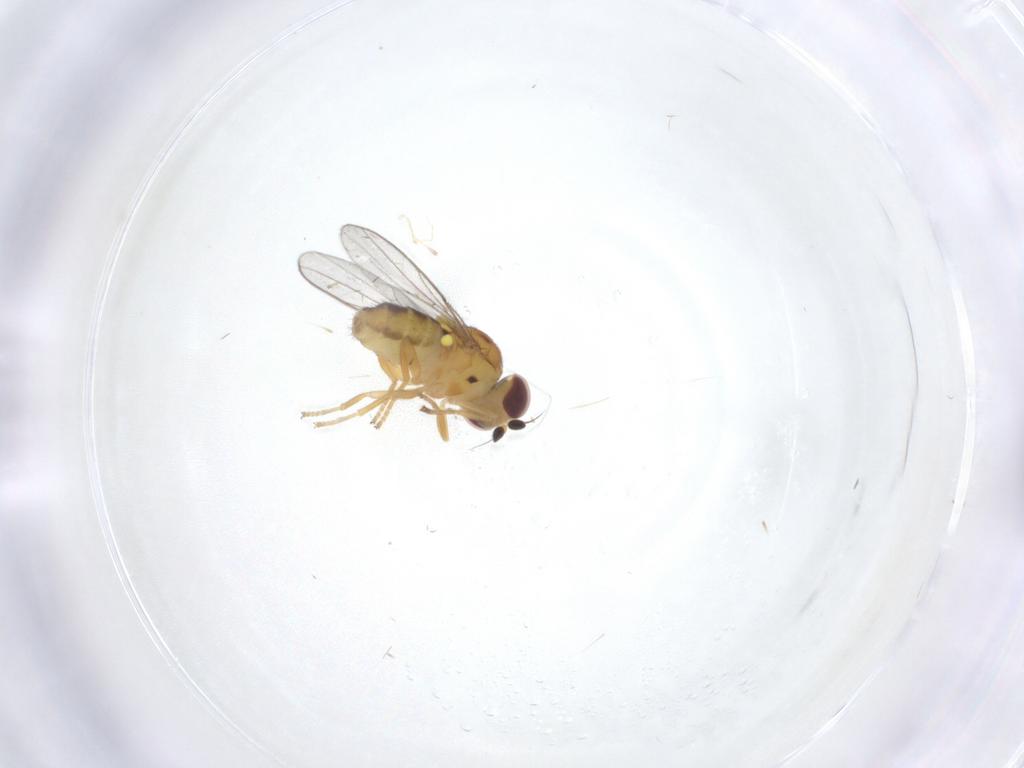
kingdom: Animalia
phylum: Arthropoda
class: Insecta
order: Diptera
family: Chloropidae
